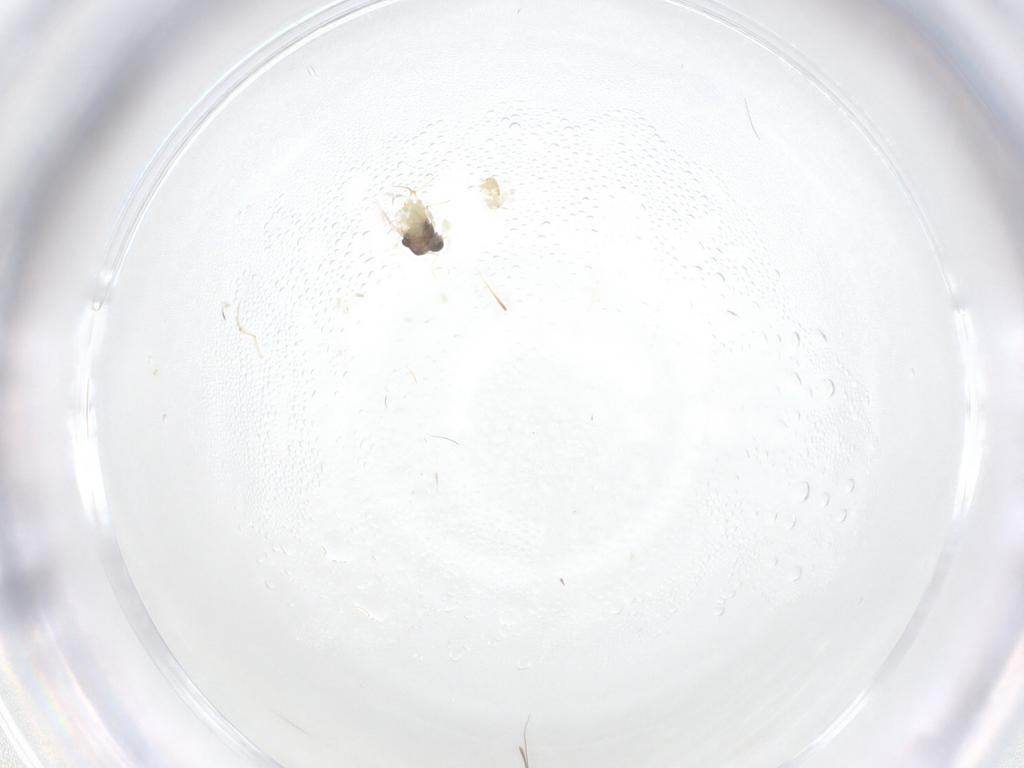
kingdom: Animalia
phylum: Arthropoda
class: Insecta
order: Diptera
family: Chironomidae
